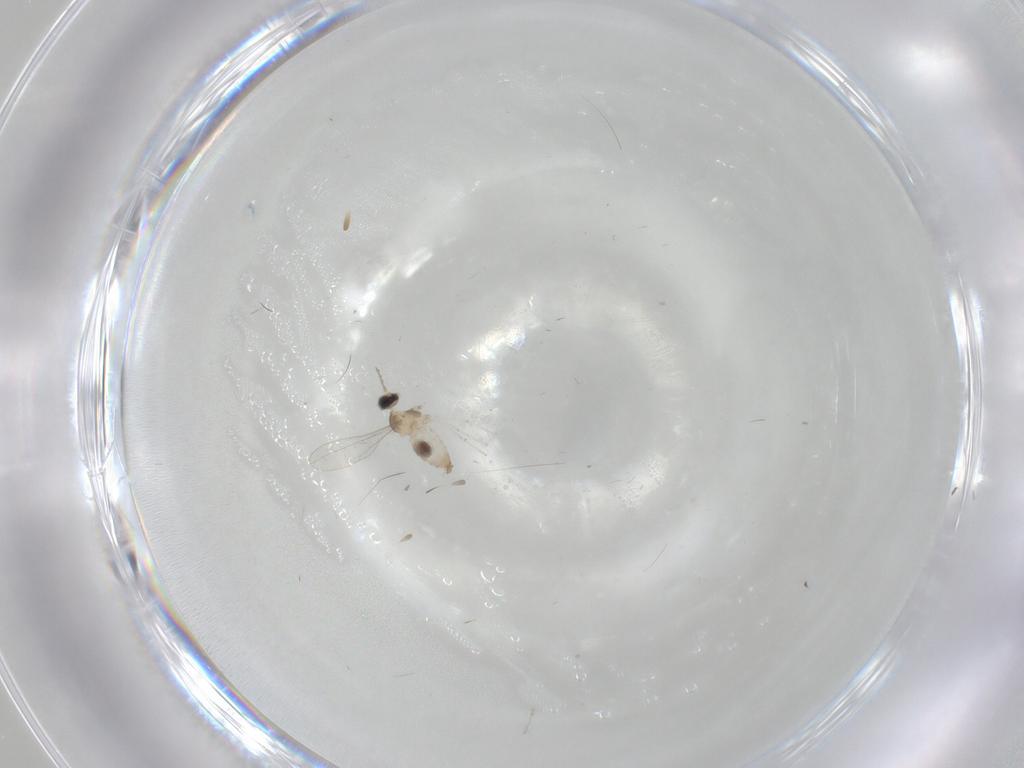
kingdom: Animalia
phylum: Arthropoda
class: Insecta
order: Diptera
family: Cecidomyiidae
